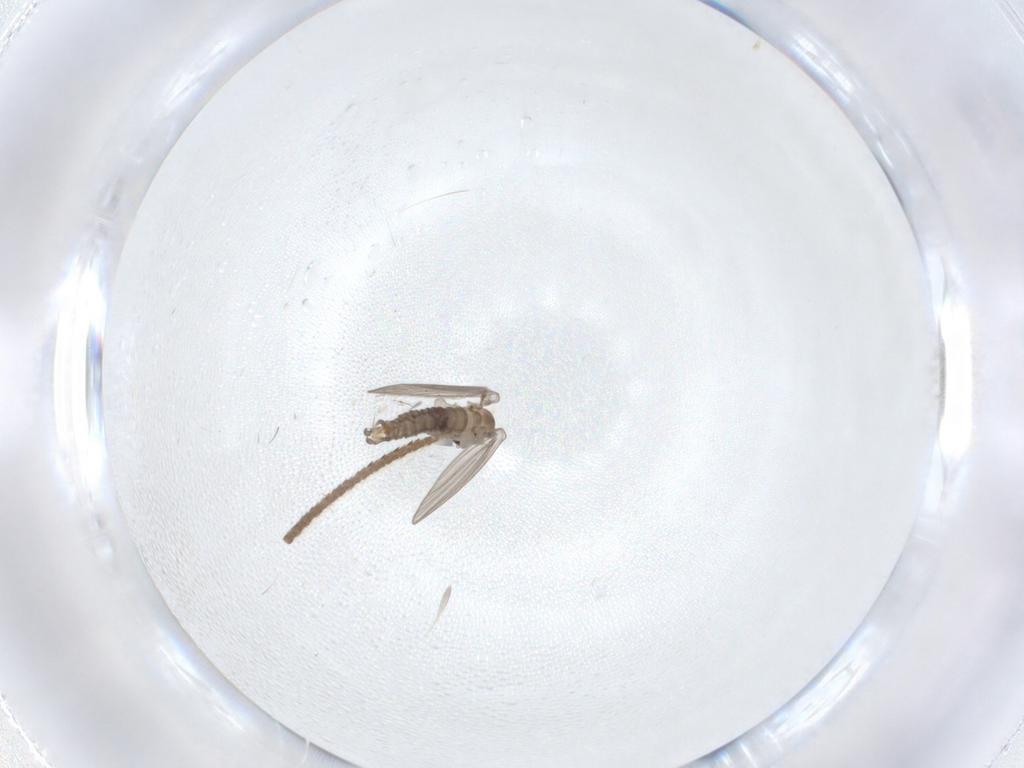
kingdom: Animalia
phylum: Arthropoda
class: Insecta
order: Diptera
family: Psychodidae
